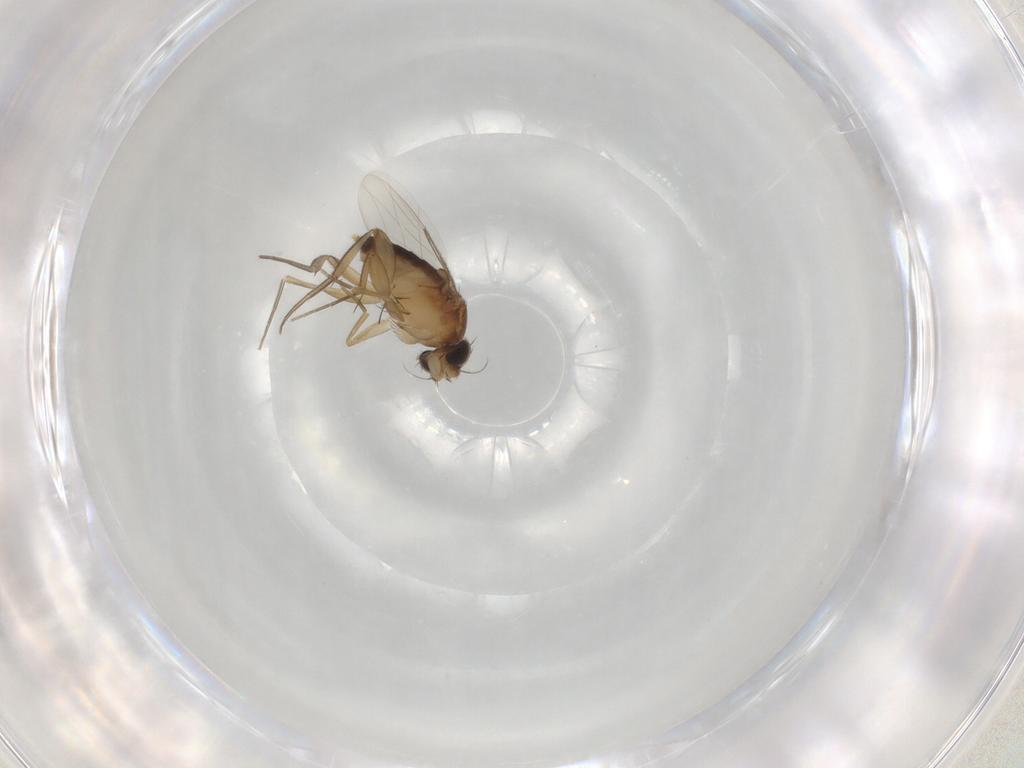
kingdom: Animalia
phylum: Arthropoda
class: Insecta
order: Diptera
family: Phoridae
